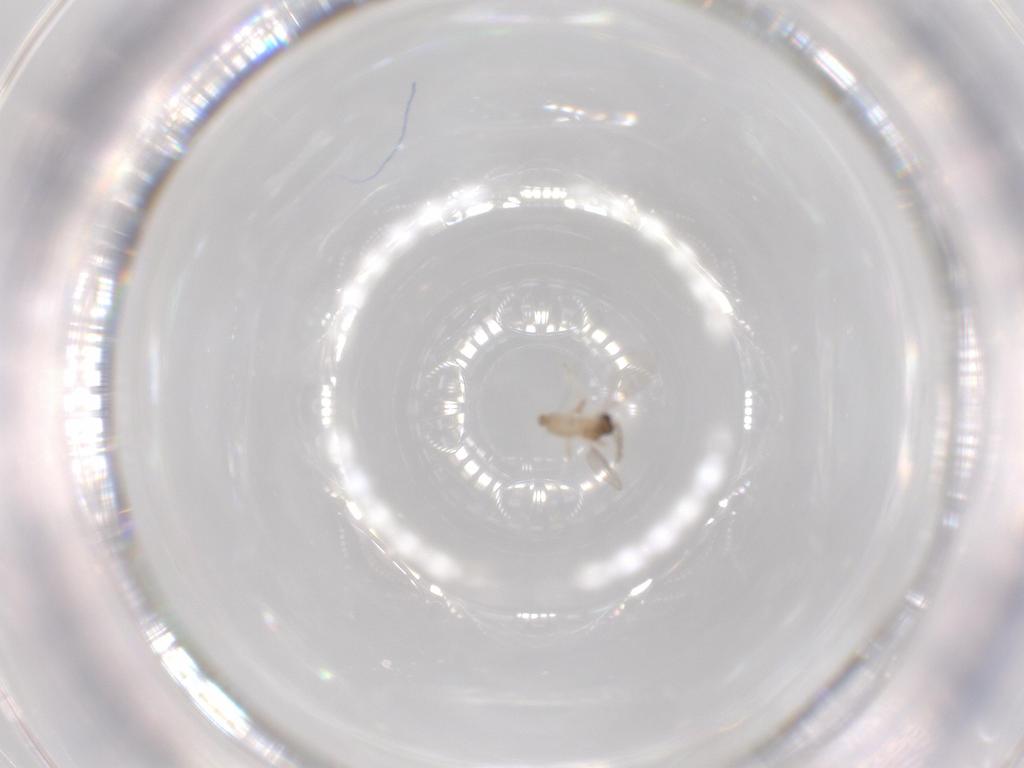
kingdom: Animalia
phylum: Arthropoda
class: Insecta
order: Diptera
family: Cecidomyiidae
